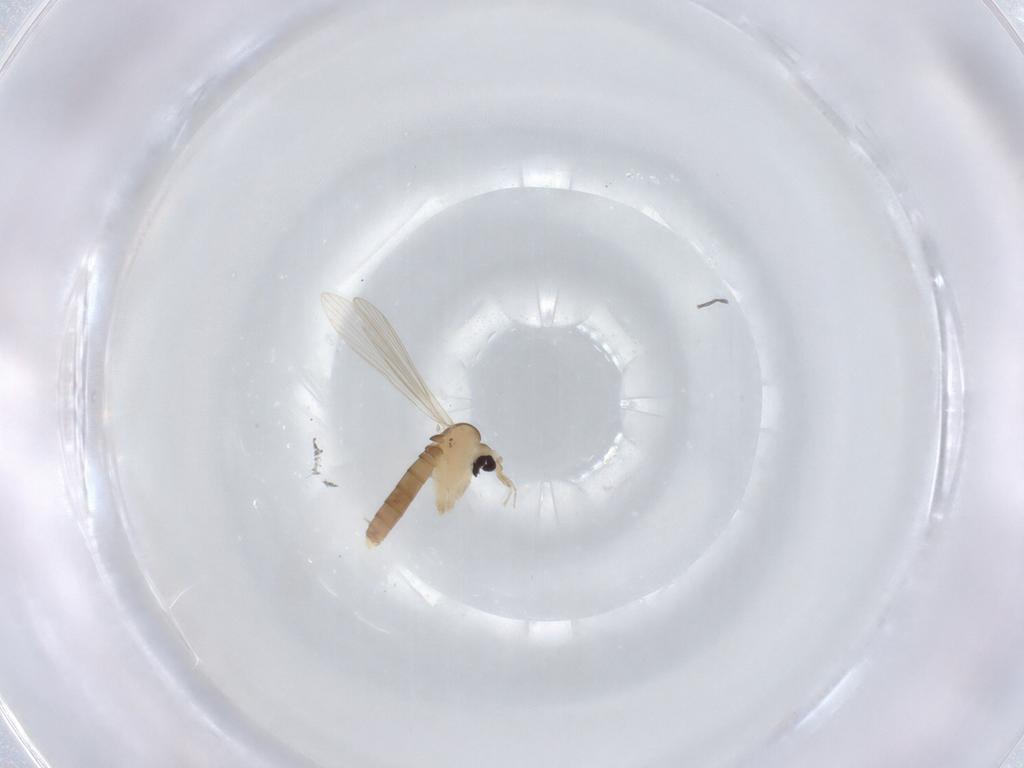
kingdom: Animalia
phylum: Arthropoda
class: Insecta
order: Diptera
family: Psychodidae
